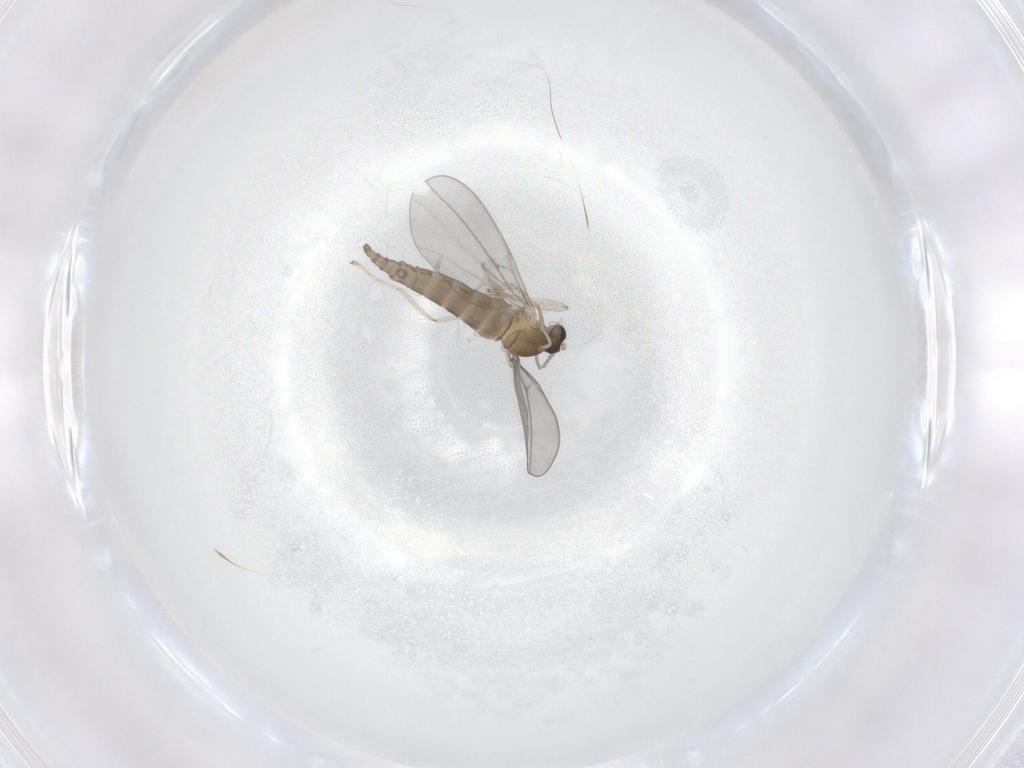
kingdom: Animalia
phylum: Arthropoda
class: Insecta
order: Diptera
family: Cecidomyiidae
